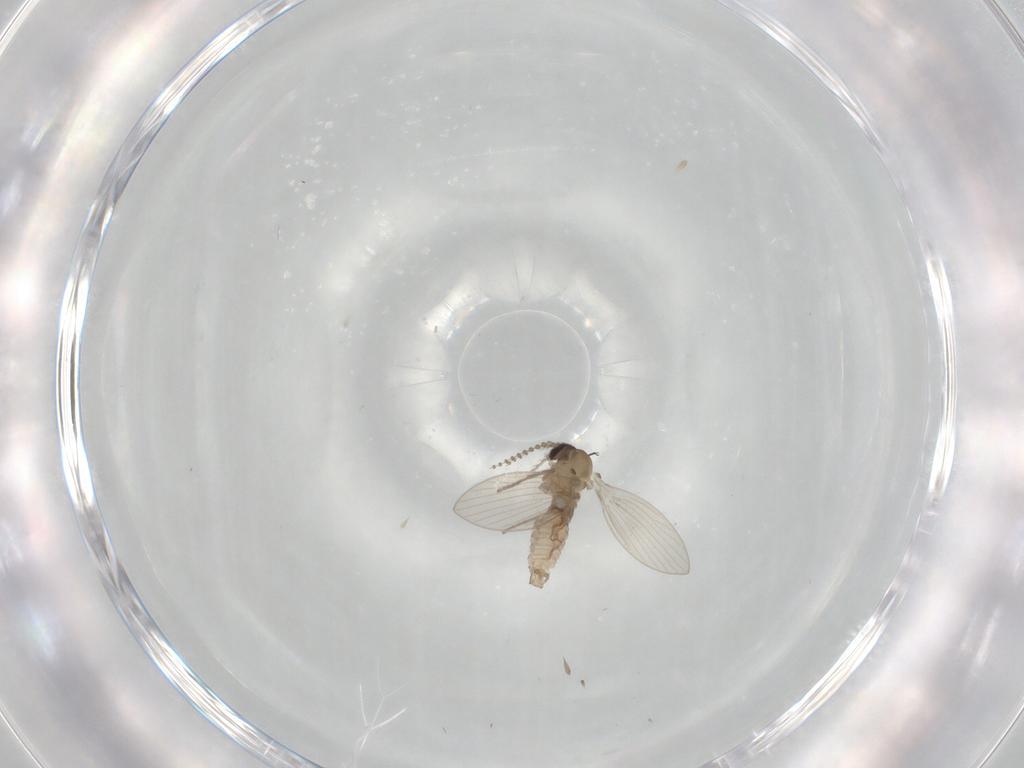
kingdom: Animalia
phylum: Arthropoda
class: Insecta
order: Diptera
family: Psychodidae
